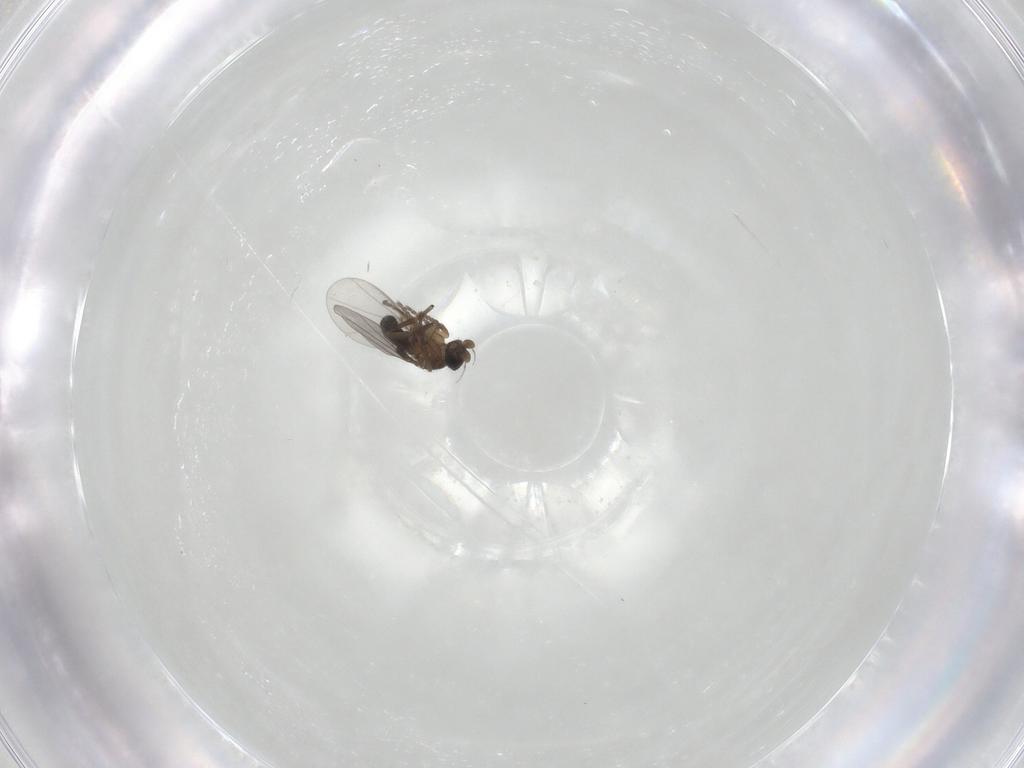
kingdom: Animalia
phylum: Arthropoda
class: Insecta
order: Diptera
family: Phoridae
